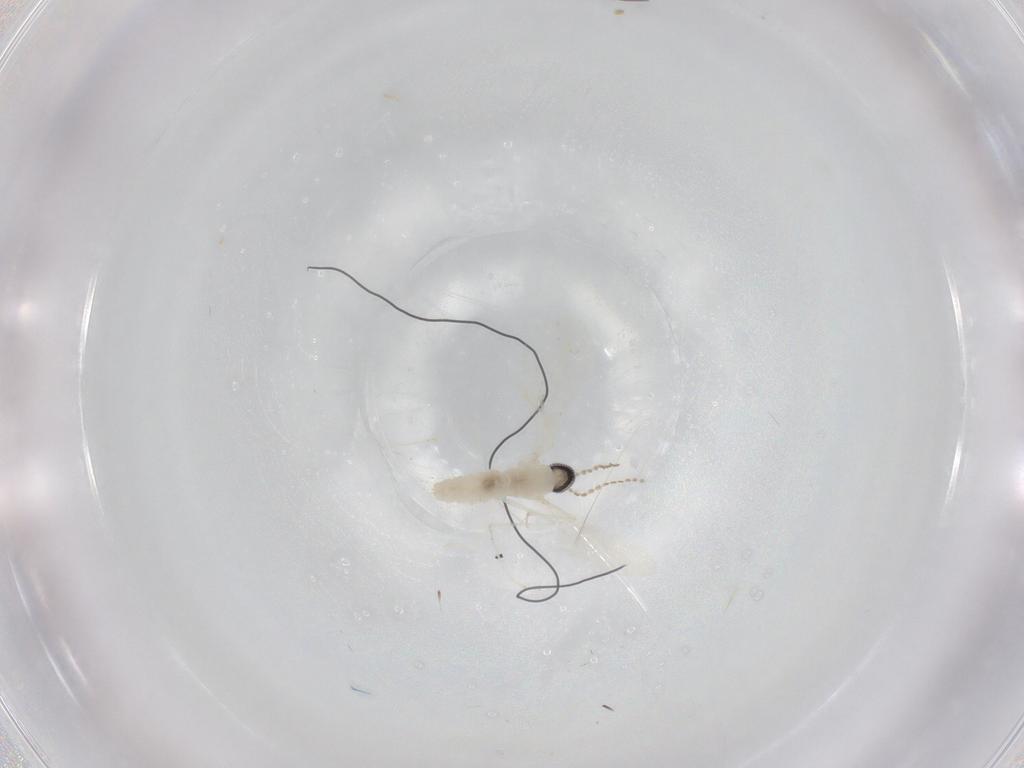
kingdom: Animalia
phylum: Arthropoda
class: Insecta
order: Diptera
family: Cecidomyiidae
